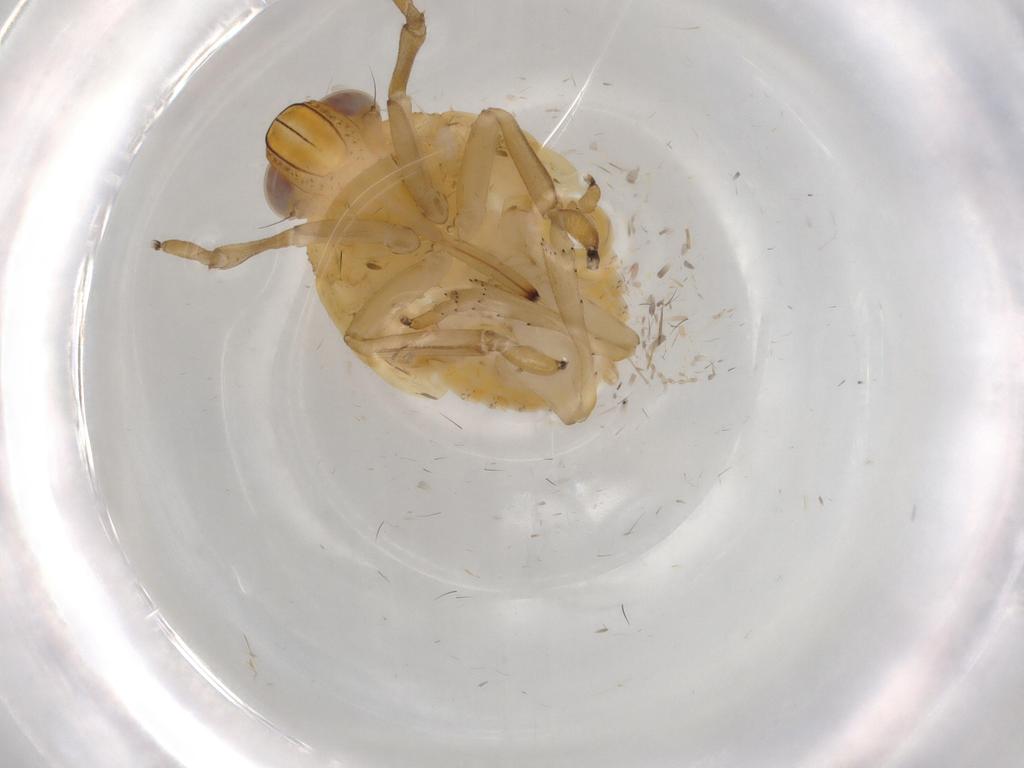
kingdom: Animalia
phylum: Arthropoda
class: Insecta
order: Hemiptera
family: Issidae
